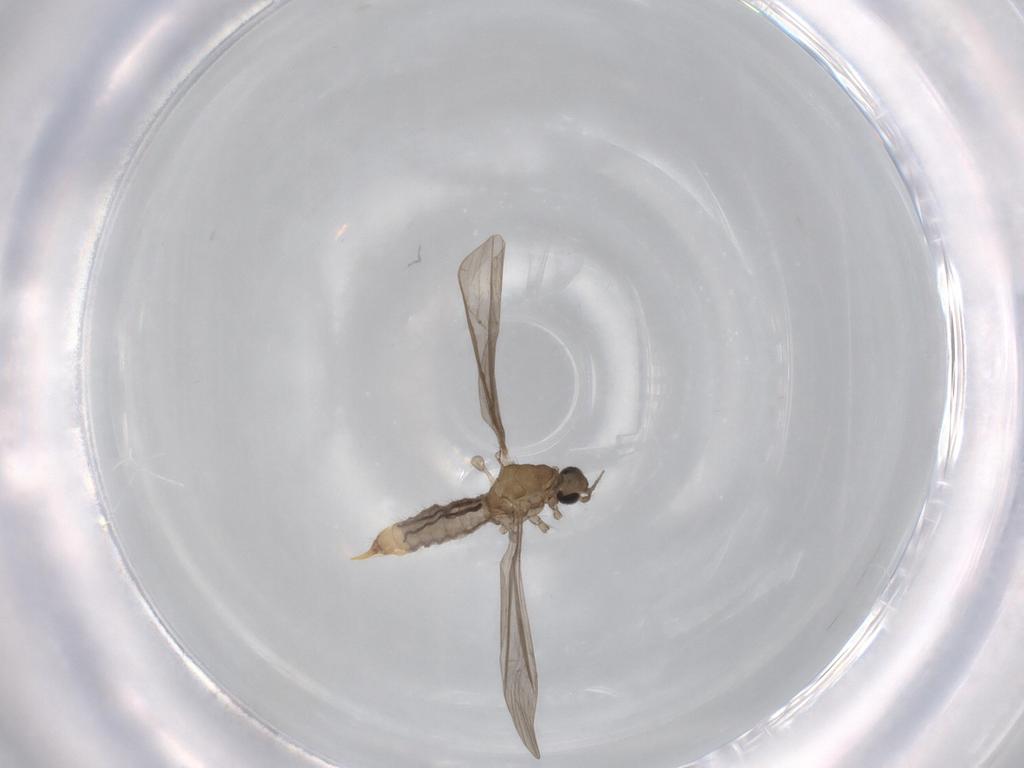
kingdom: Animalia
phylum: Arthropoda
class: Insecta
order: Diptera
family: Limoniidae
